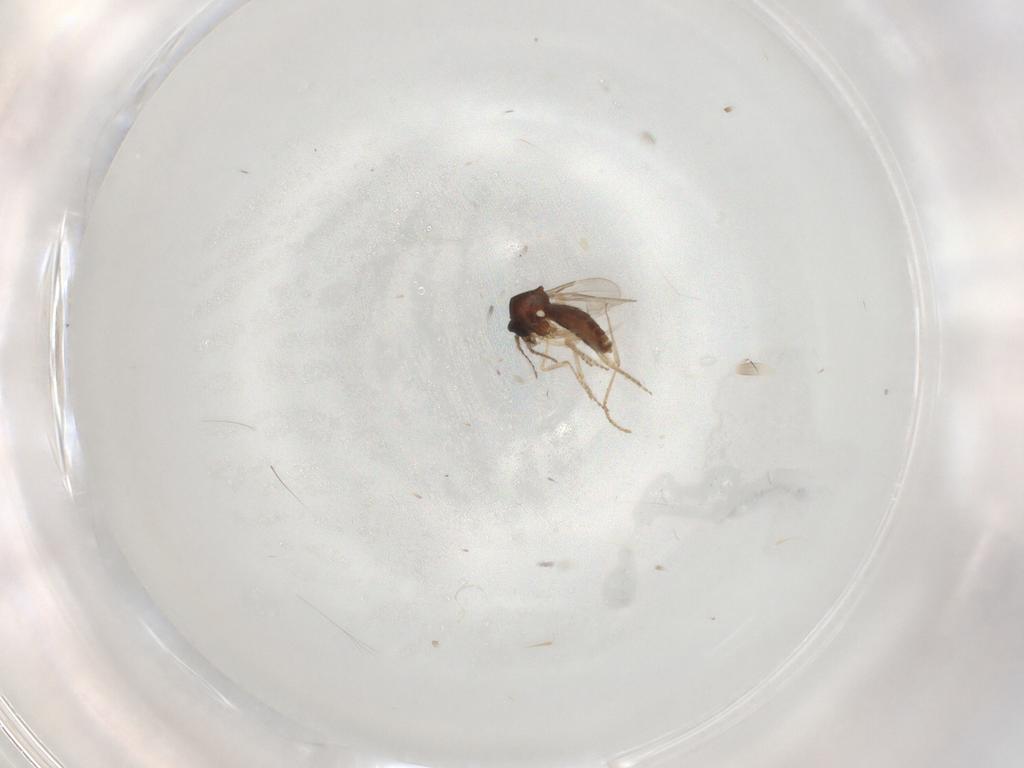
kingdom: Animalia
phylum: Arthropoda
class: Insecta
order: Diptera
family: Ceratopogonidae
